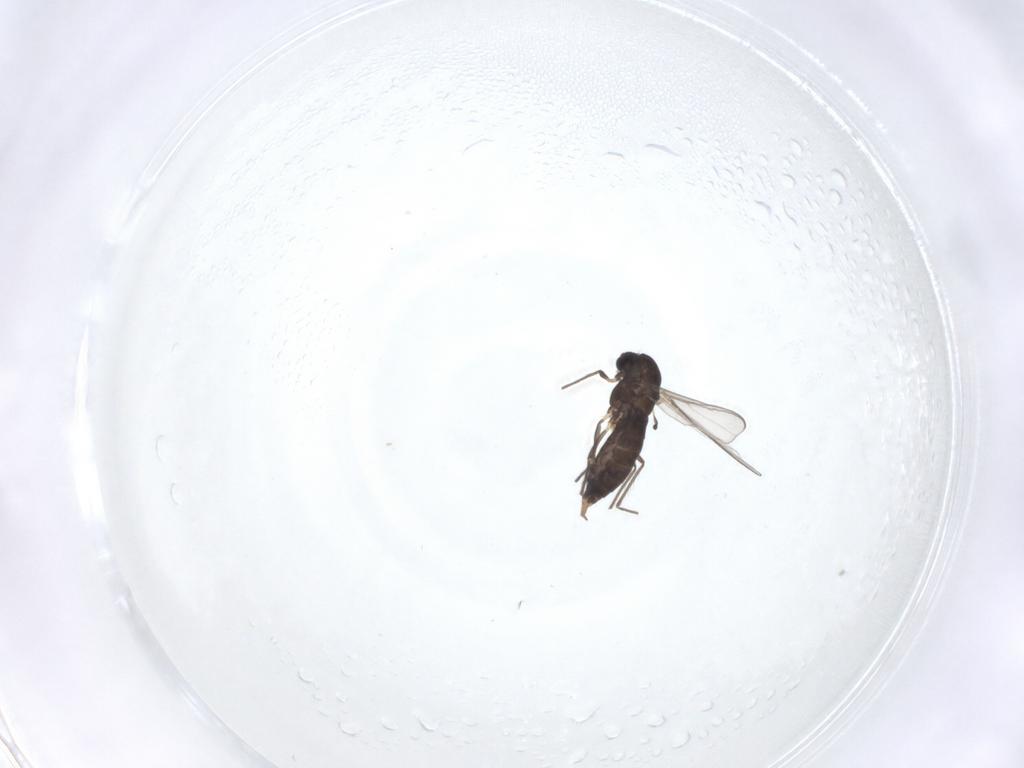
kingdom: Animalia
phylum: Arthropoda
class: Insecta
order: Diptera
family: Chironomidae
